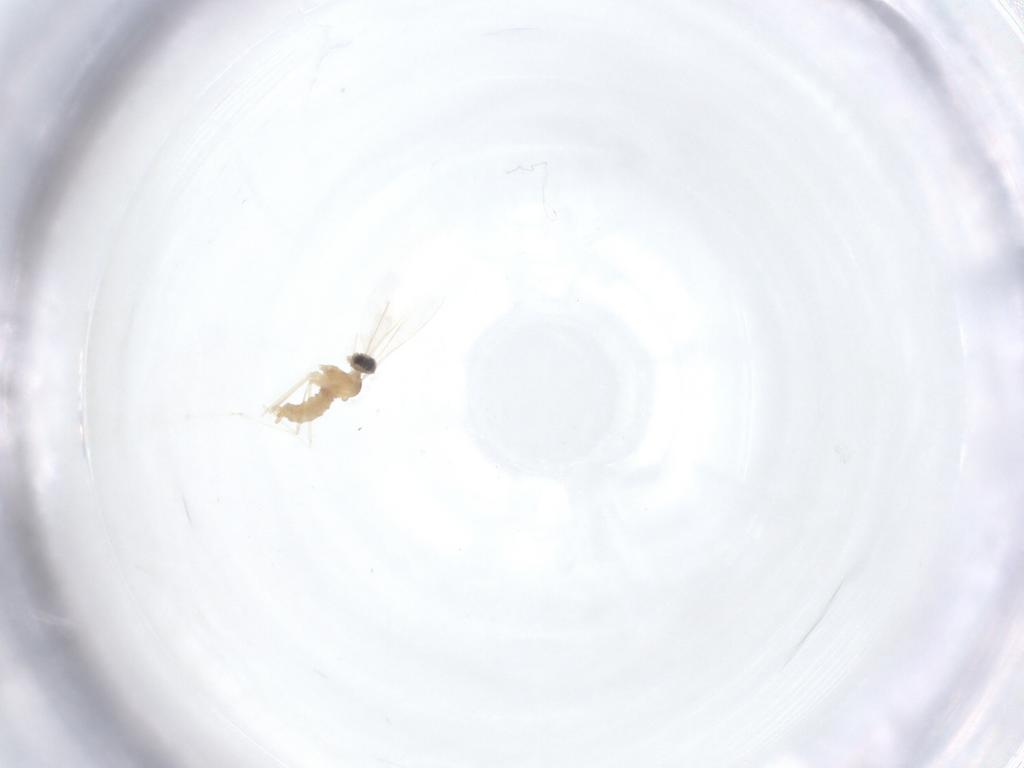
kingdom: Animalia
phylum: Arthropoda
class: Insecta
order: Diptera
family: Cecidomyiidae
